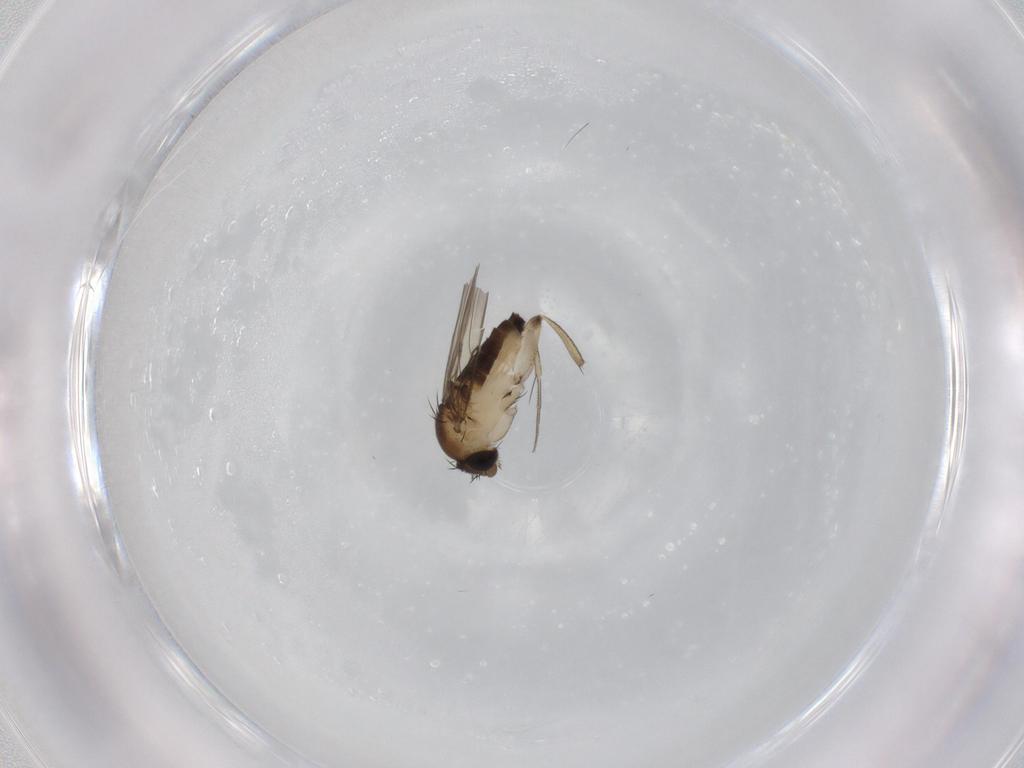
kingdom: Animalia
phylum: Arthropoda
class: Insecta
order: Diptera
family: Phoridae
